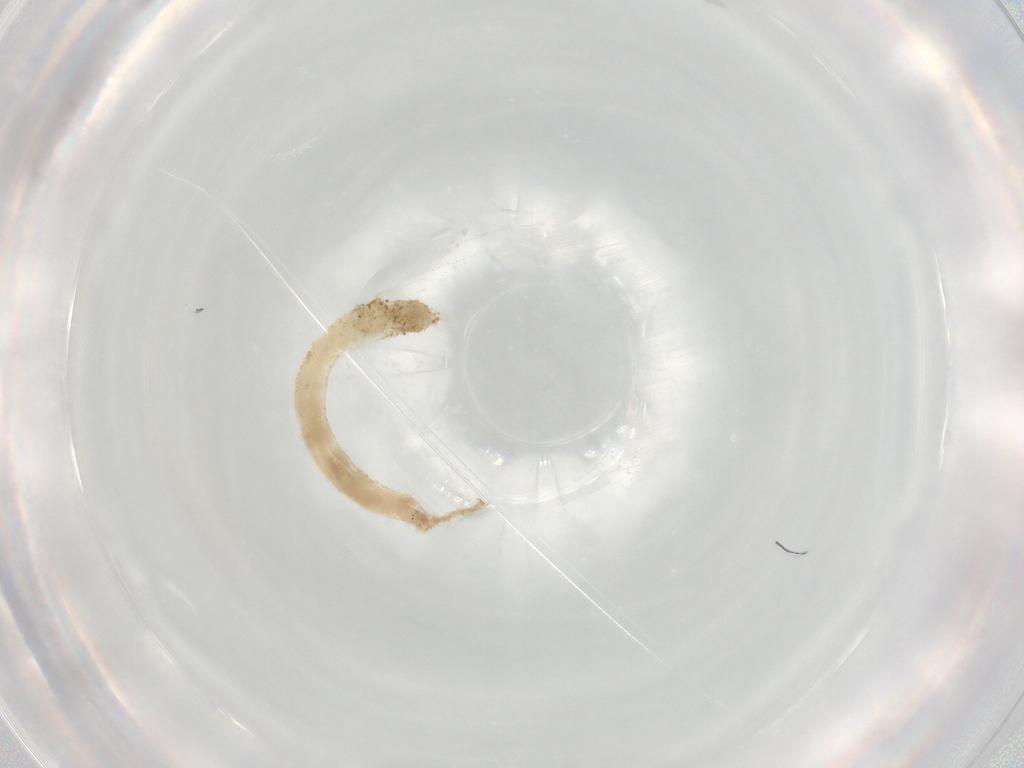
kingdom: Animalia
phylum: Arthropoda
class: Insecta
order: Diptera
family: Chironomidae
